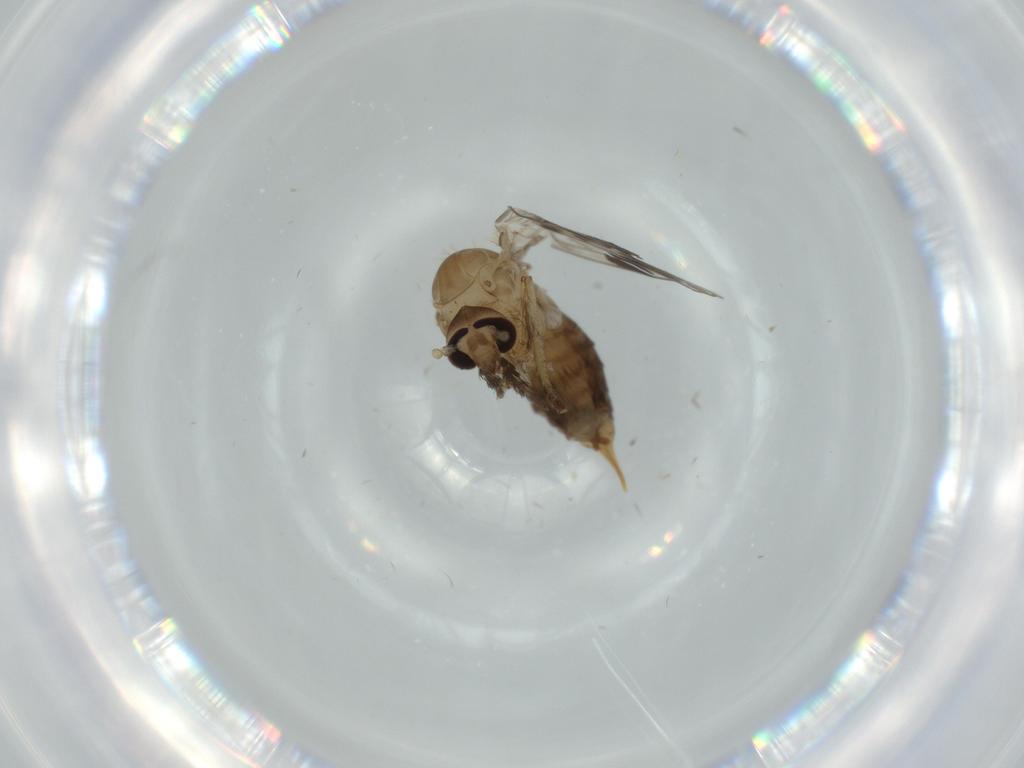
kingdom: Animalia
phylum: Arthropoda
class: Insecta
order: Diptera
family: Psychodidae
